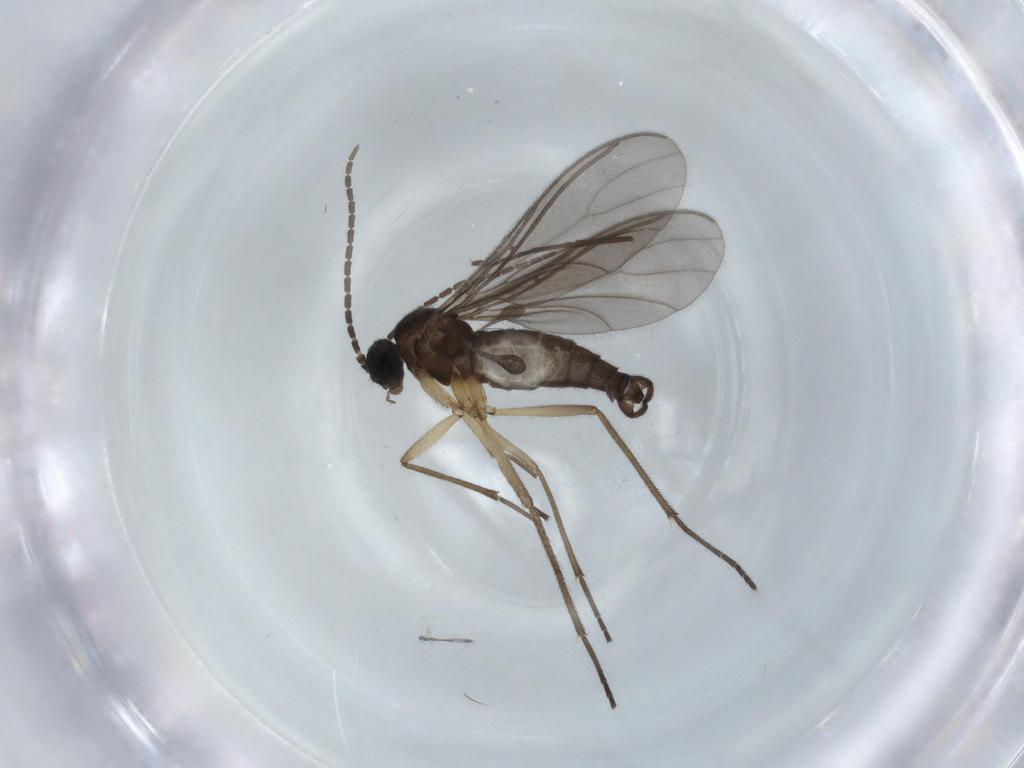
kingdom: Animalia
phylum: Arthropoda
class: Insecta
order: Diptera
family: Sciaridae
